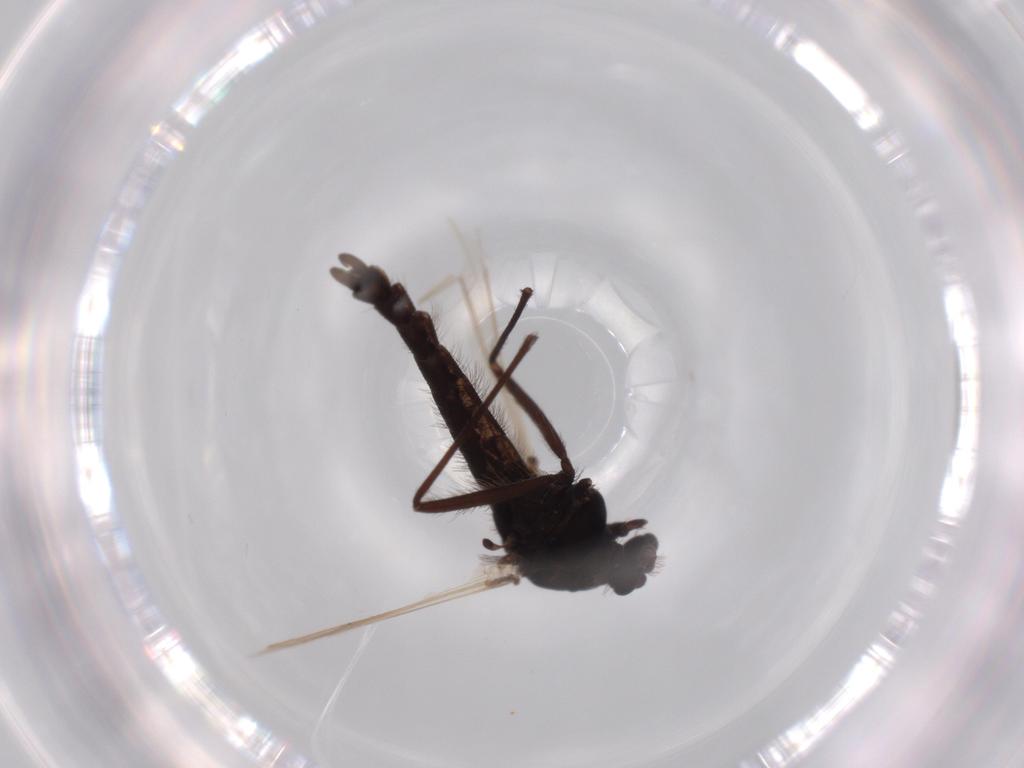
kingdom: Animalia
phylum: Arthropoda
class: Insecta
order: Diptera
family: Chironomidae
